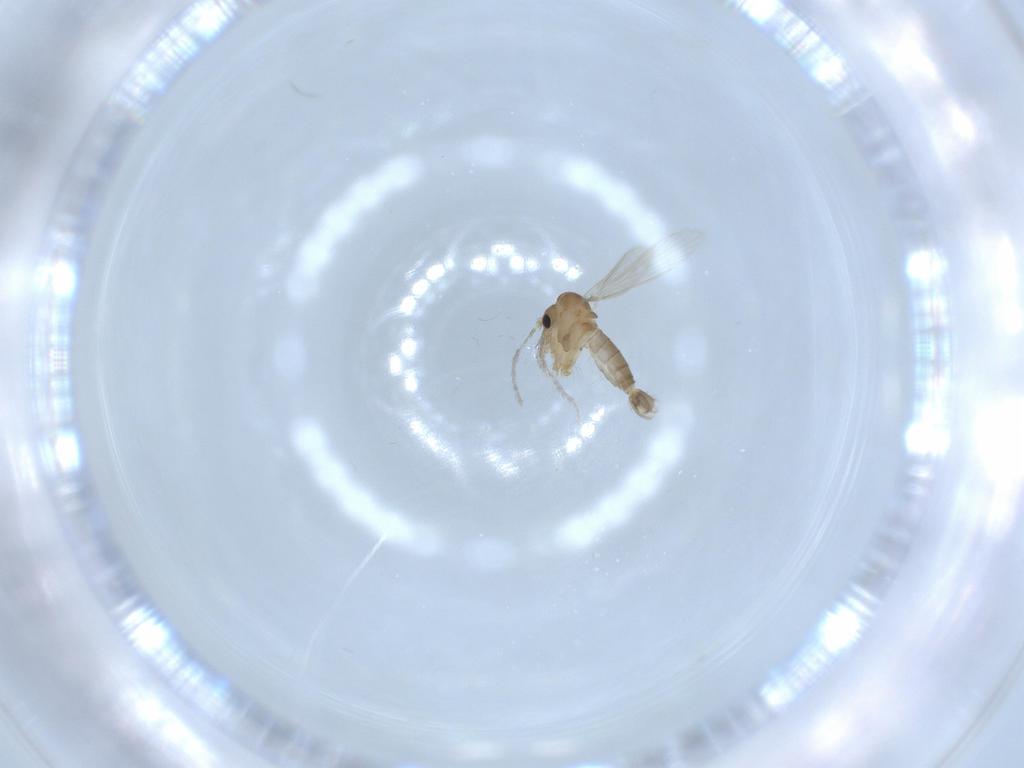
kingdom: Animalia
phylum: Arthropoda
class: Insecta
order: Diptera
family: Psychodidae
